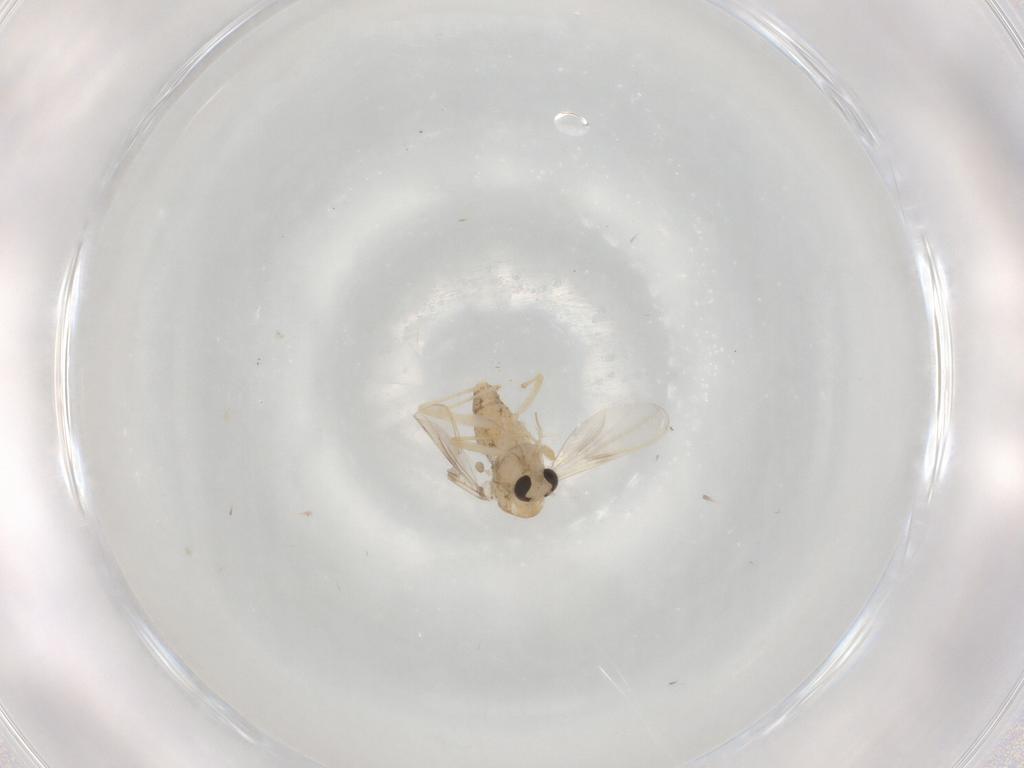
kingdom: Animalia
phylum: Arthropoda
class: Insecta
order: Diptera
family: Chironomidae
